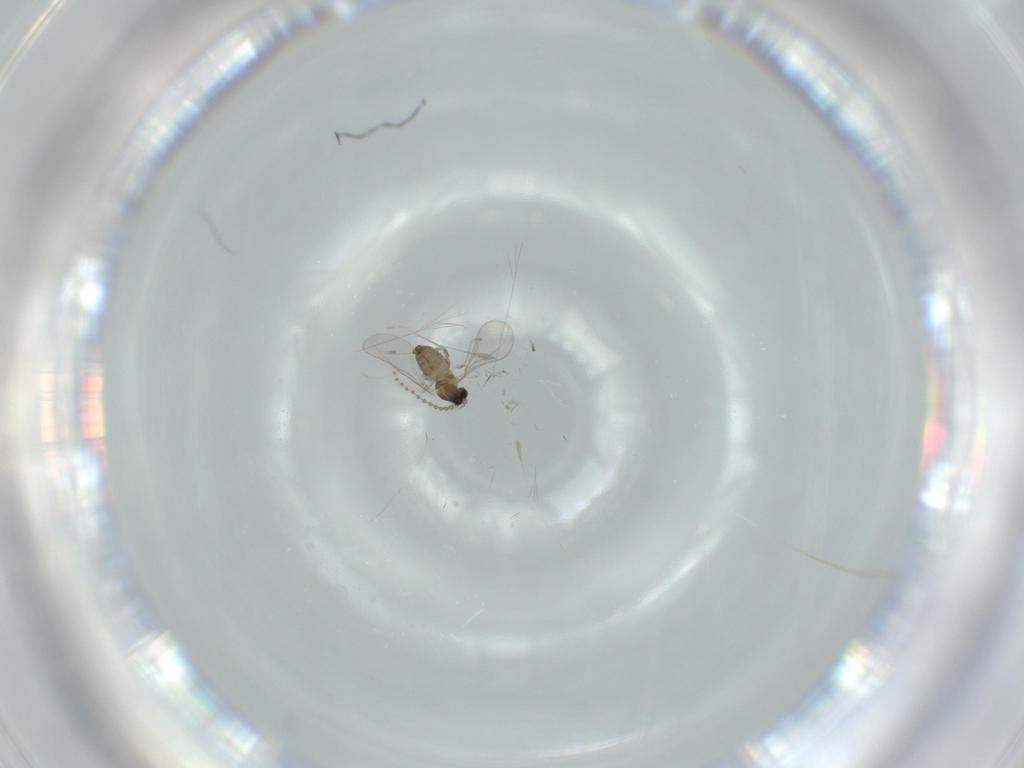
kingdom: Animalia
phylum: Arthropoda
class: Insecta
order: Diptera
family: Cecidomyiidae
